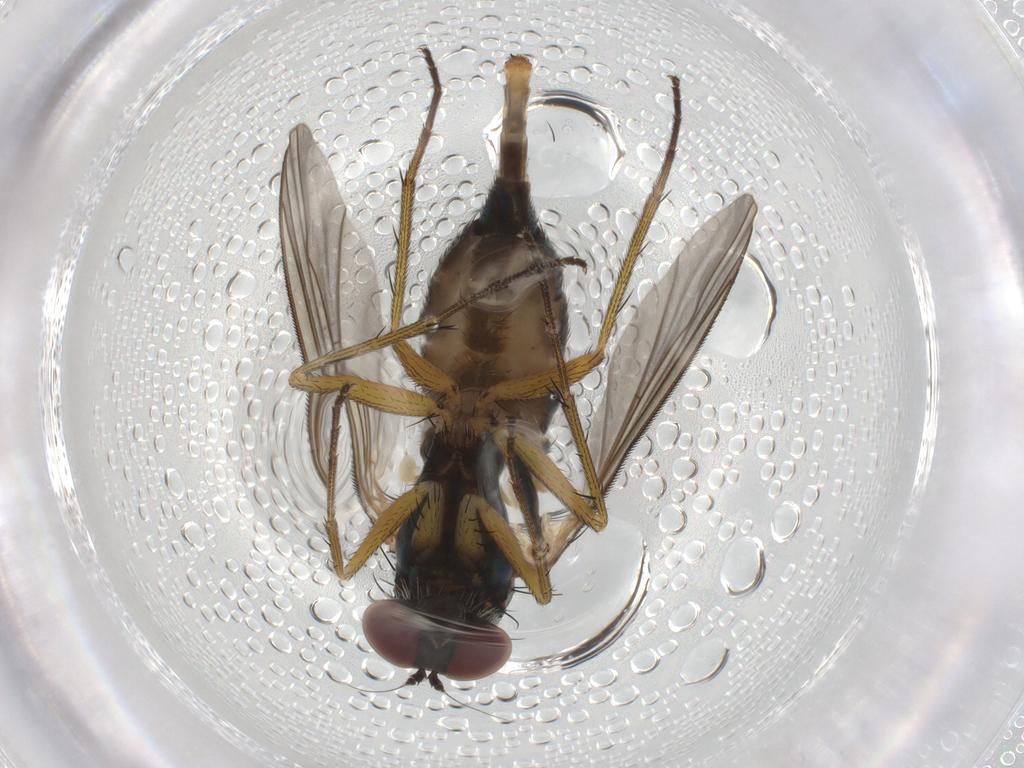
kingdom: Animalia
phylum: Arthropoda
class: Insecta
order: Diptera
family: Dolichopodidae
